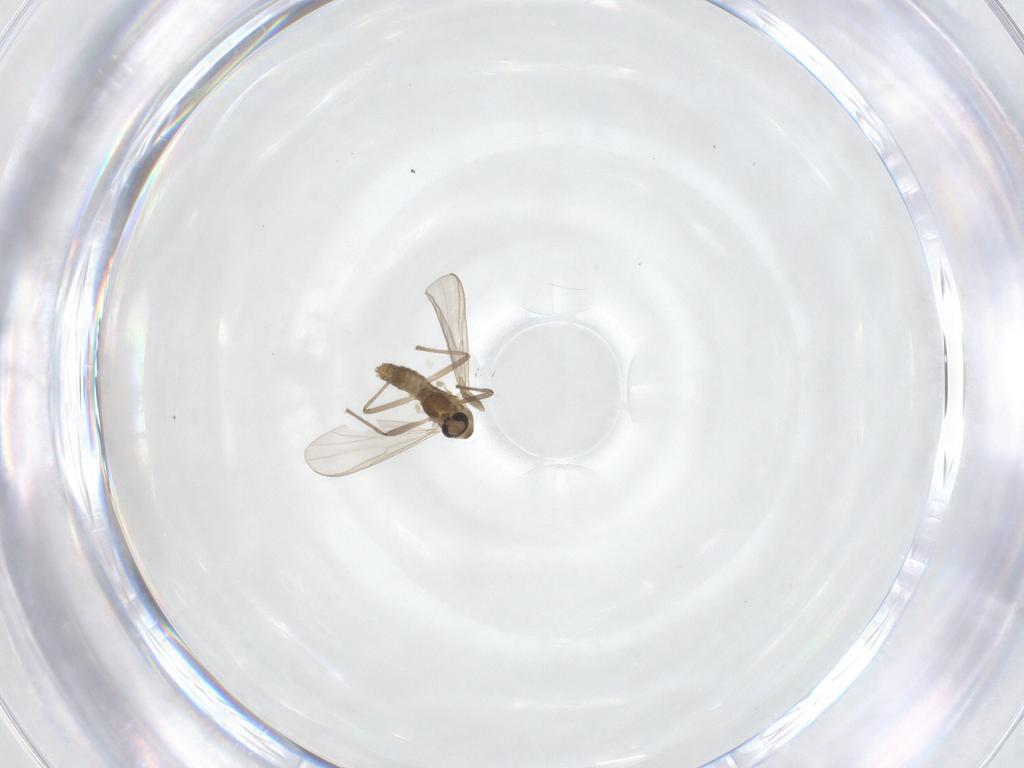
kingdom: Animalia
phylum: Arthropoda
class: Insecta
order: Diptera
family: Chironomidae
